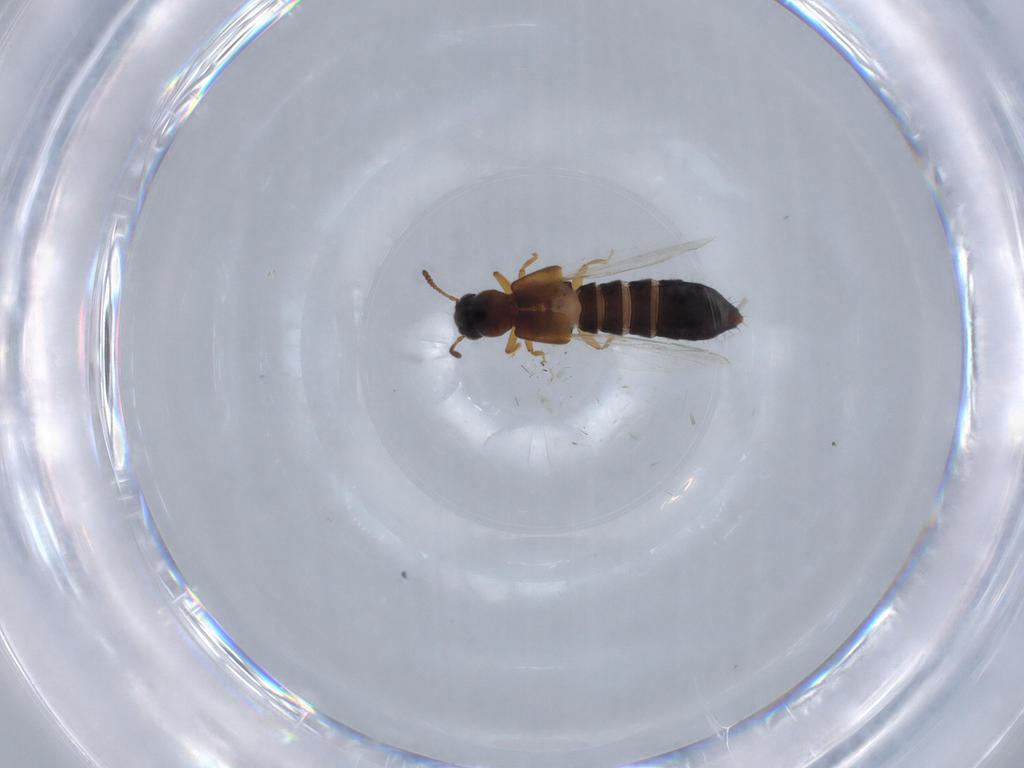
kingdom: Animalia
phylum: Arthropoda
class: Insecta
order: Coleoptera
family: Staphylinidae
